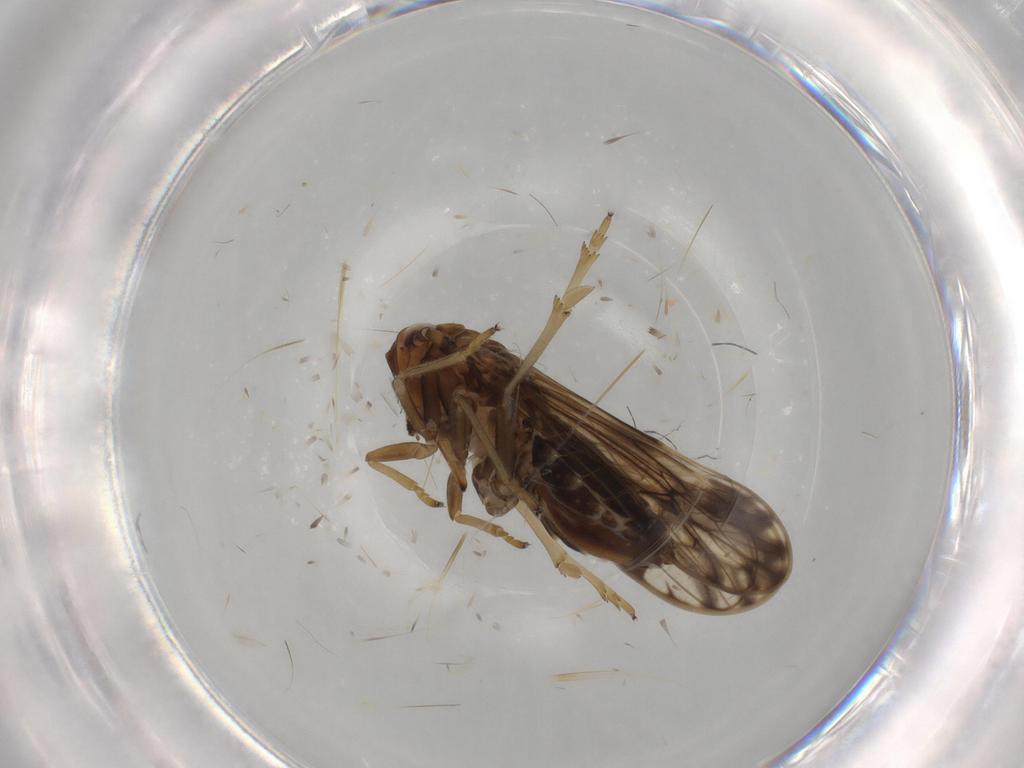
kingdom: Animalia
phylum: Arthropoda
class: Insecta
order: Hemiptera
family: Delphacidae
